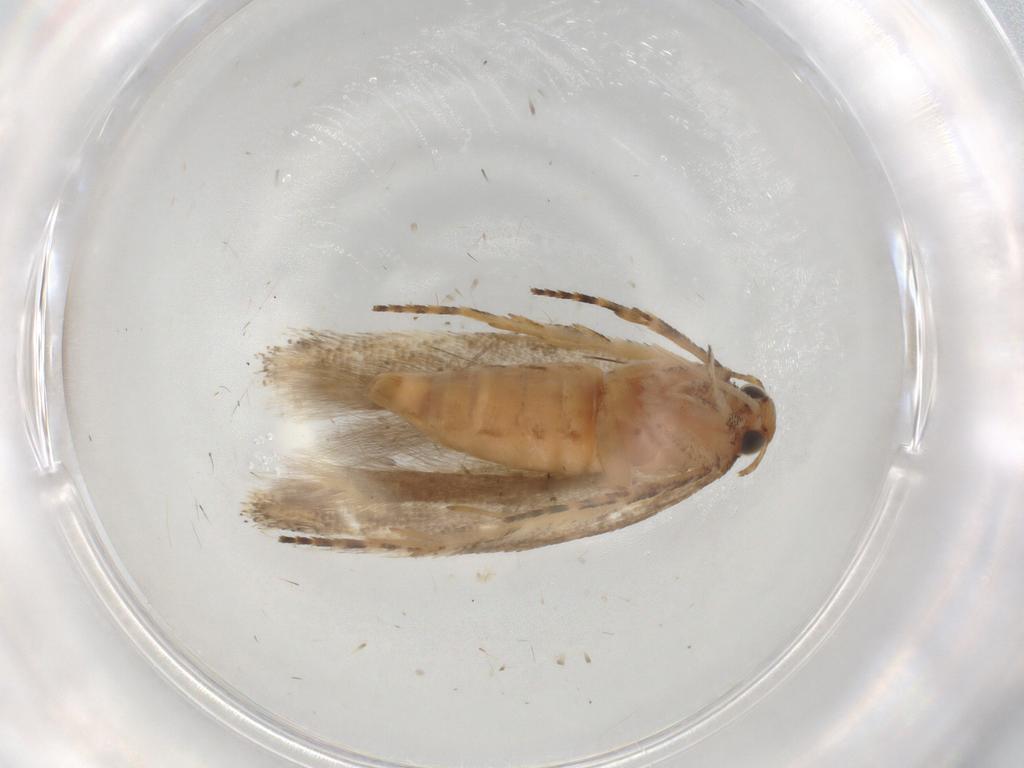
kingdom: Animalia
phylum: Arthropoda
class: Insecta
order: Lepidoptera
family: Gelechiidae
